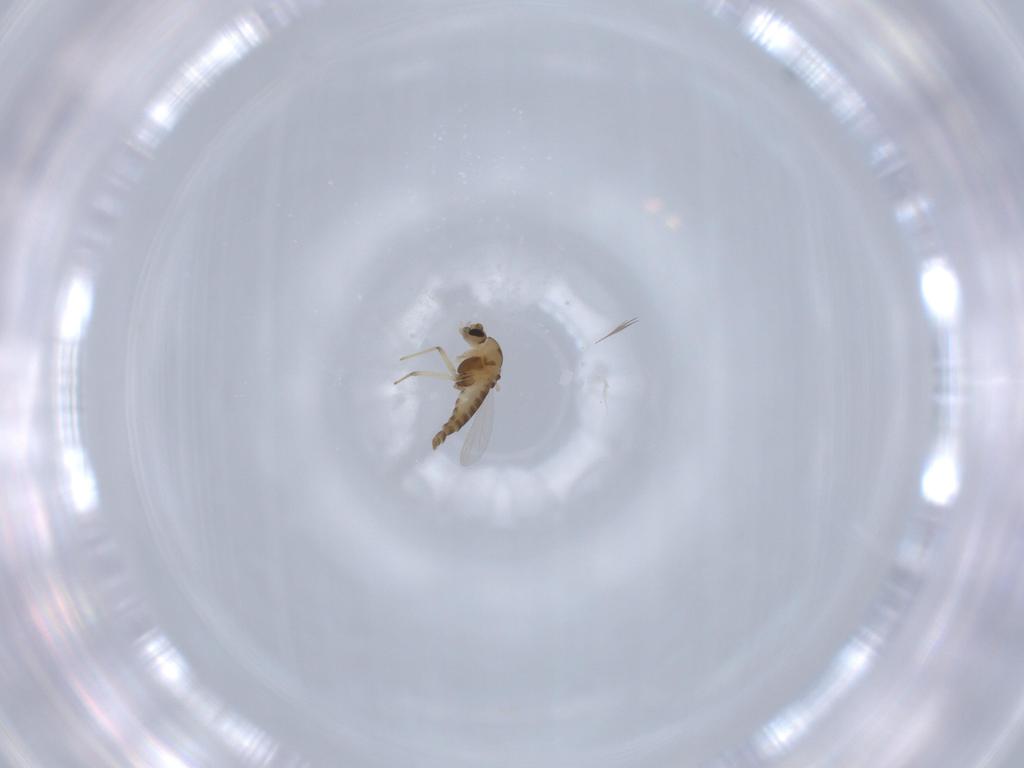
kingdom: Animalia
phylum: Arthropoda
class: Insecta
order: Diptera
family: Chironomidae
